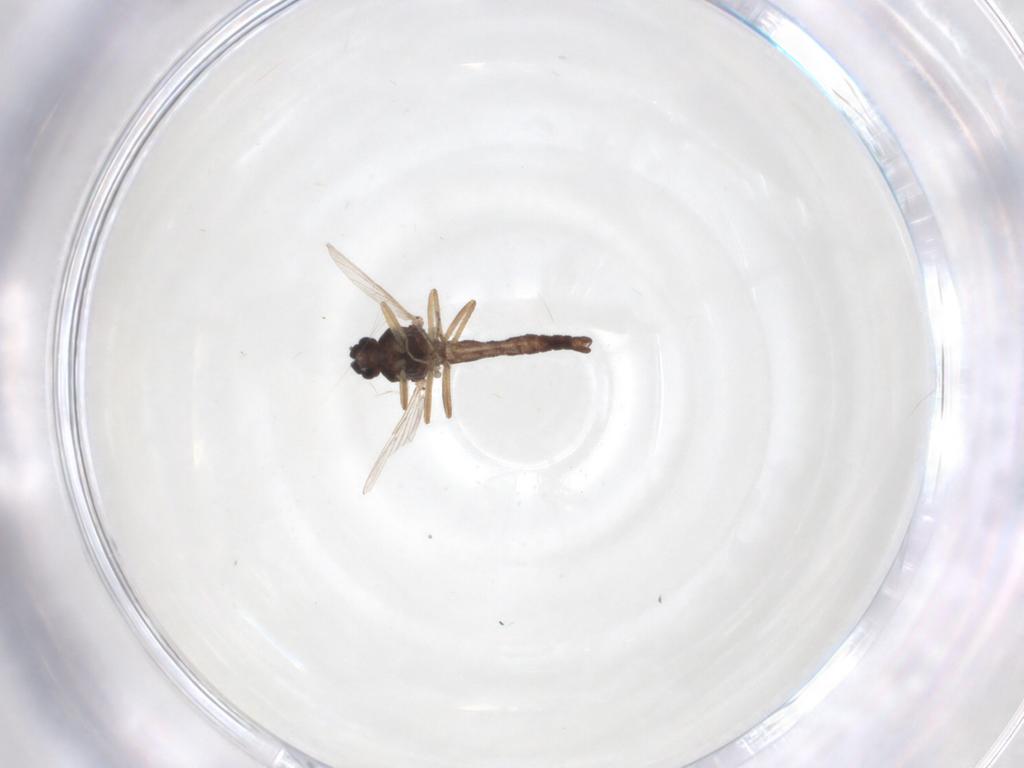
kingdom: Animalia
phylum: Arthropoda
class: Insecta
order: Diptera
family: Ceratopogonidae
